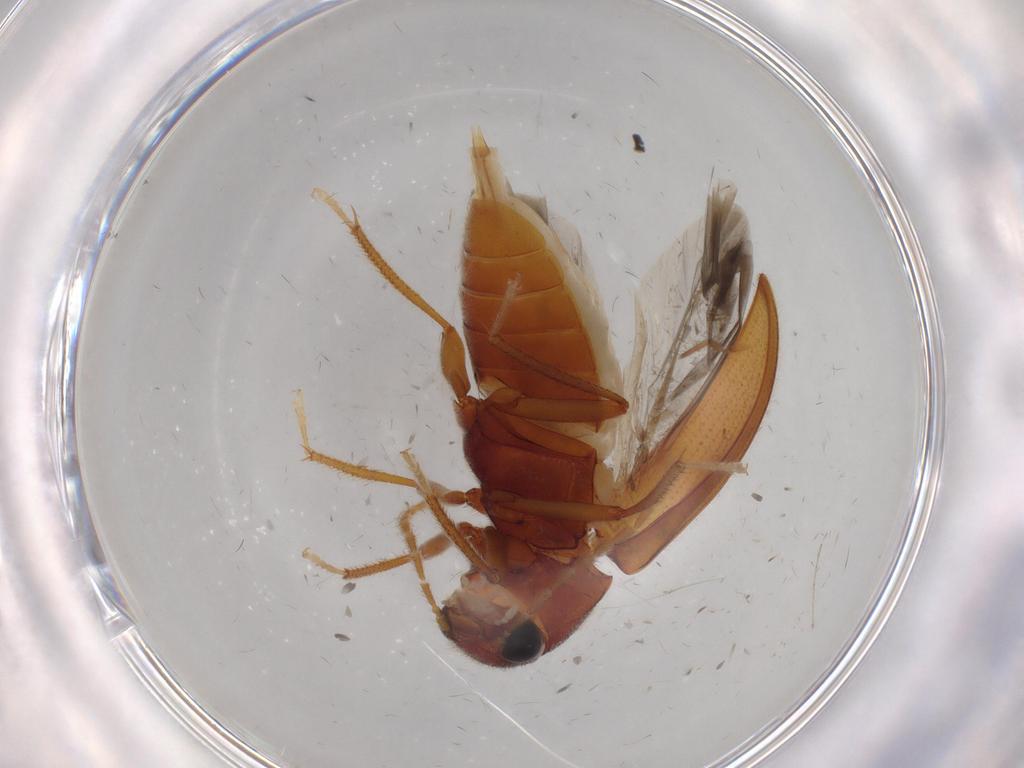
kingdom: Animalia
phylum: Arthropoda
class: Insecta
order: Coleoptera
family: Ptilodactylidae
